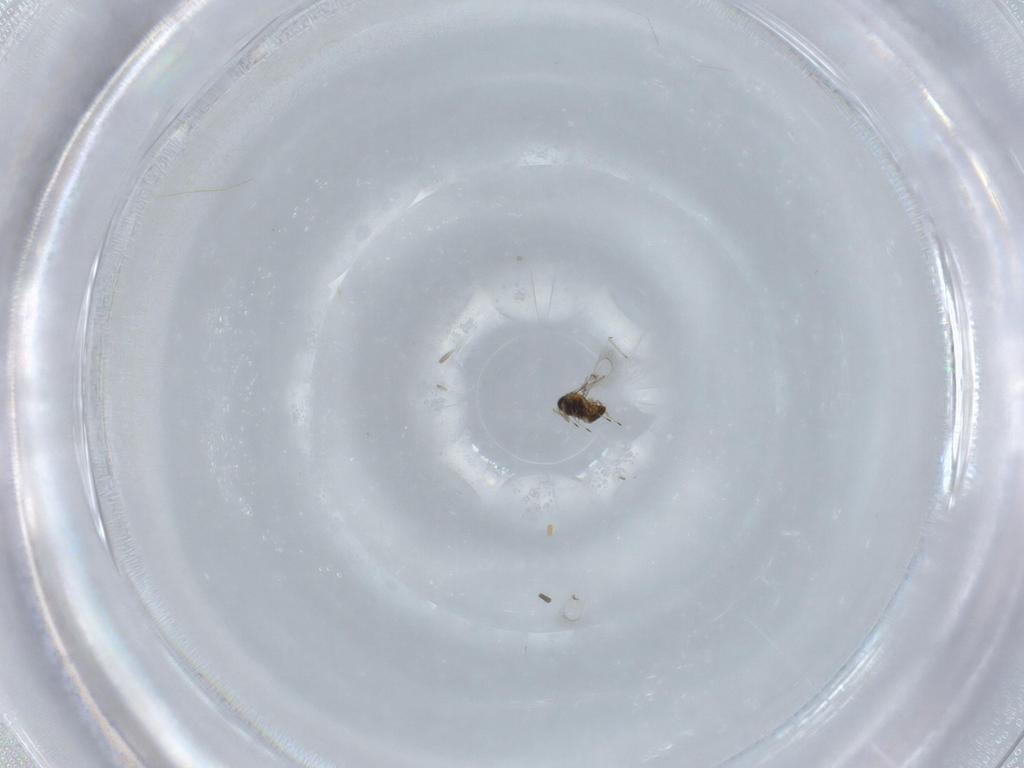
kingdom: Animalia
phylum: Arthropoda
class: Insecta
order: Hymenoptera
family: Trichogrammatidae
